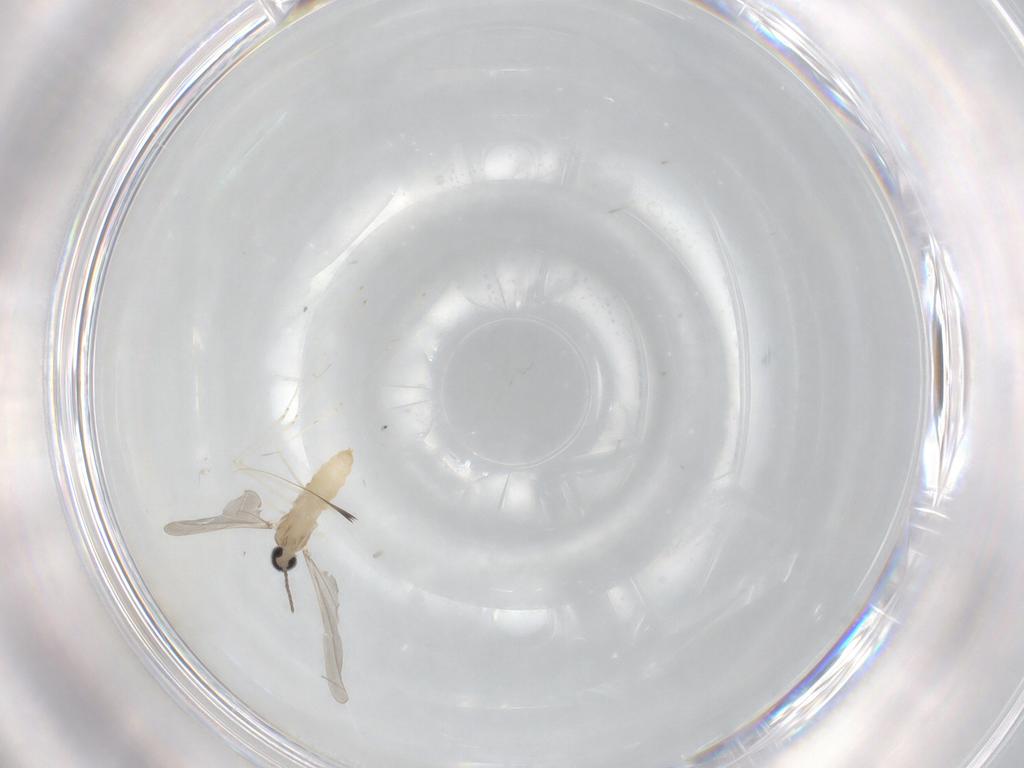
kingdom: Animalia
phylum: Arthropoda
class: Insecta
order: Diptera
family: Cecidomyiidae
